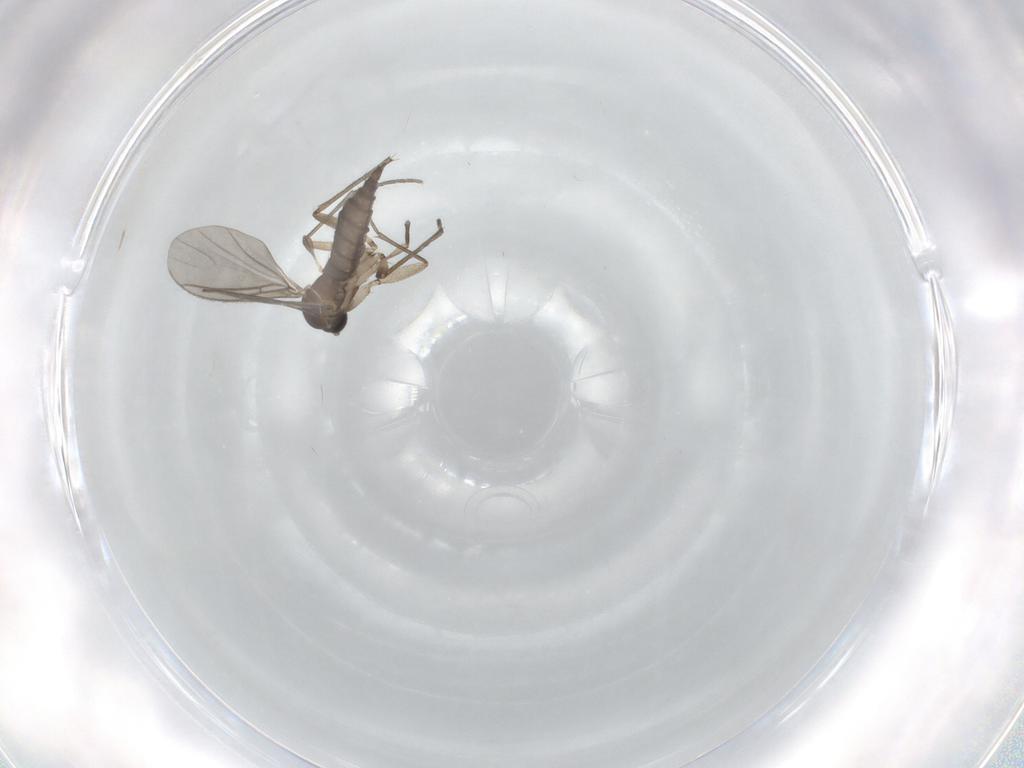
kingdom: Animalia
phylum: Arthropoda
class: Insecta
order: Diptera
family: Sciaridae
